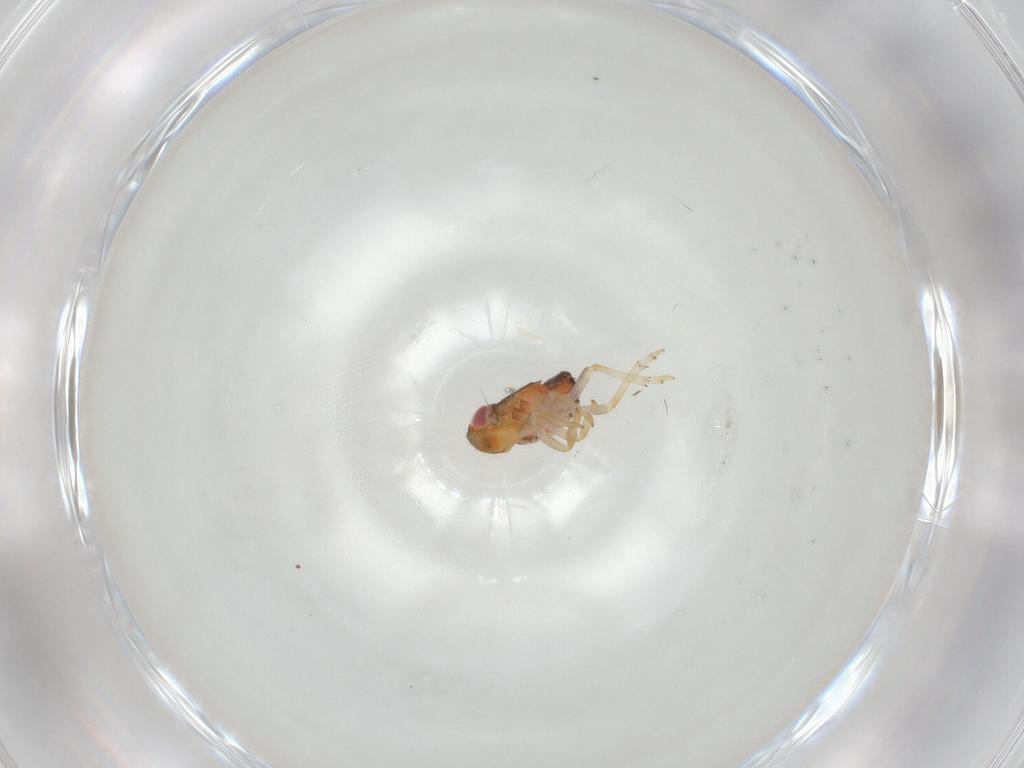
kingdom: Animalia
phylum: Arthropoda
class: Insecta
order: Hemiptera
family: Issidae
